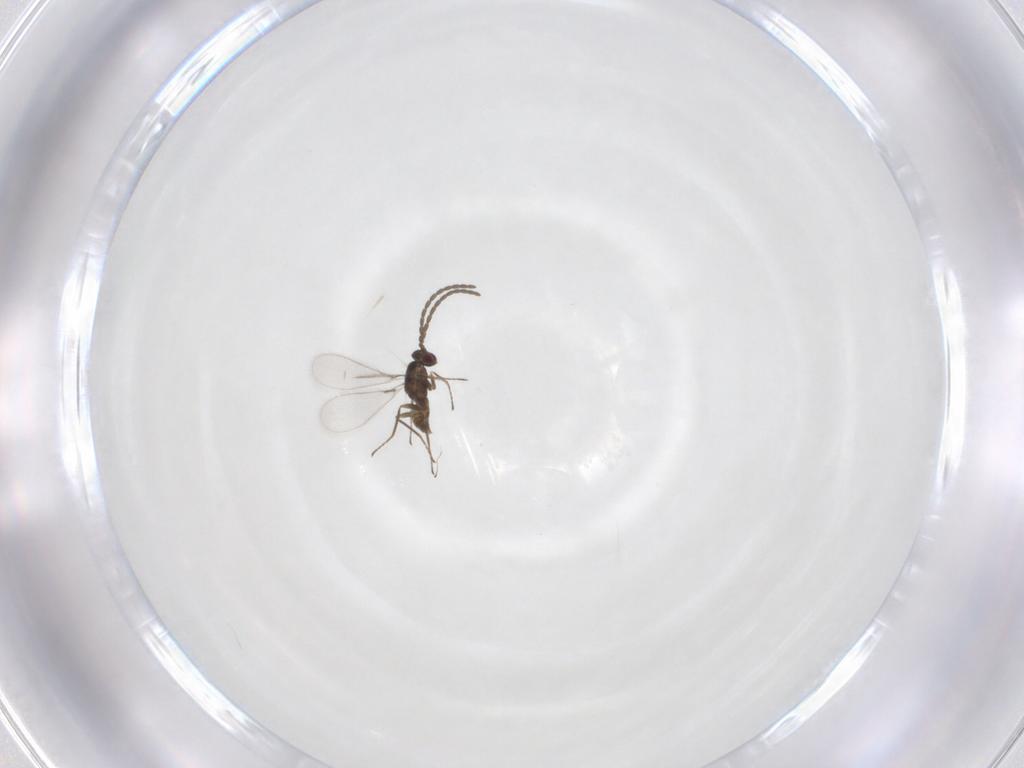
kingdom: Animalia
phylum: Arthropoda
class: Insecta
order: Hymenoptera
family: Mymaridae
